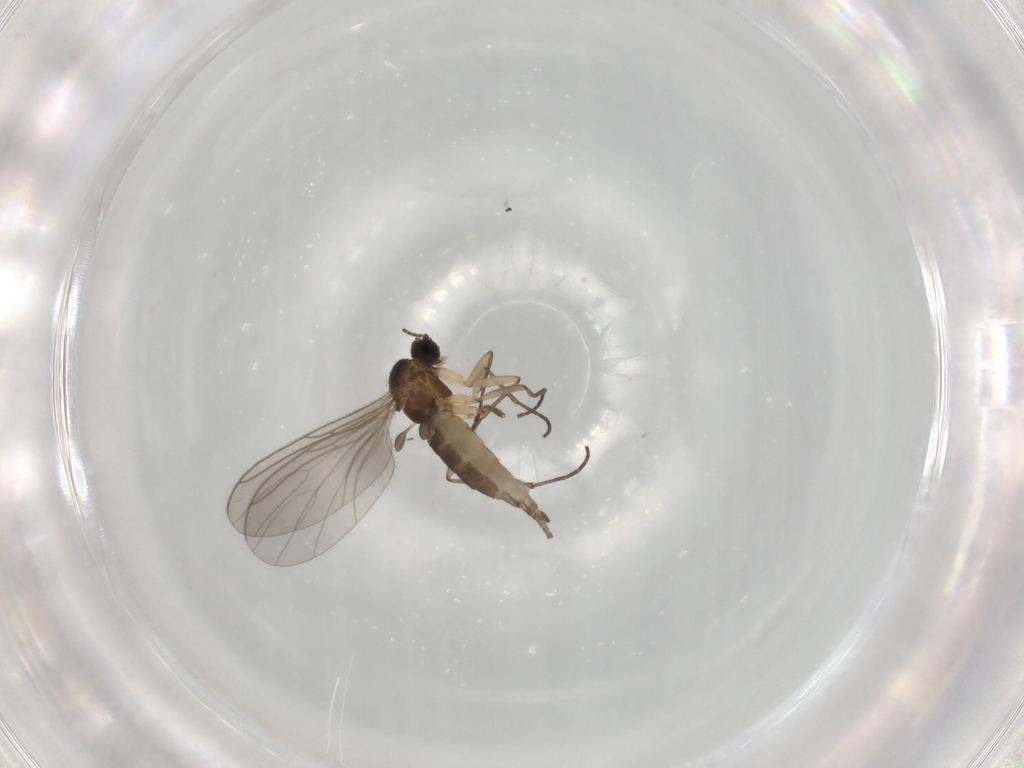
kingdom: Animalia
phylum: Arthropoda
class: Insecta
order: Diptera
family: Sciaridae
